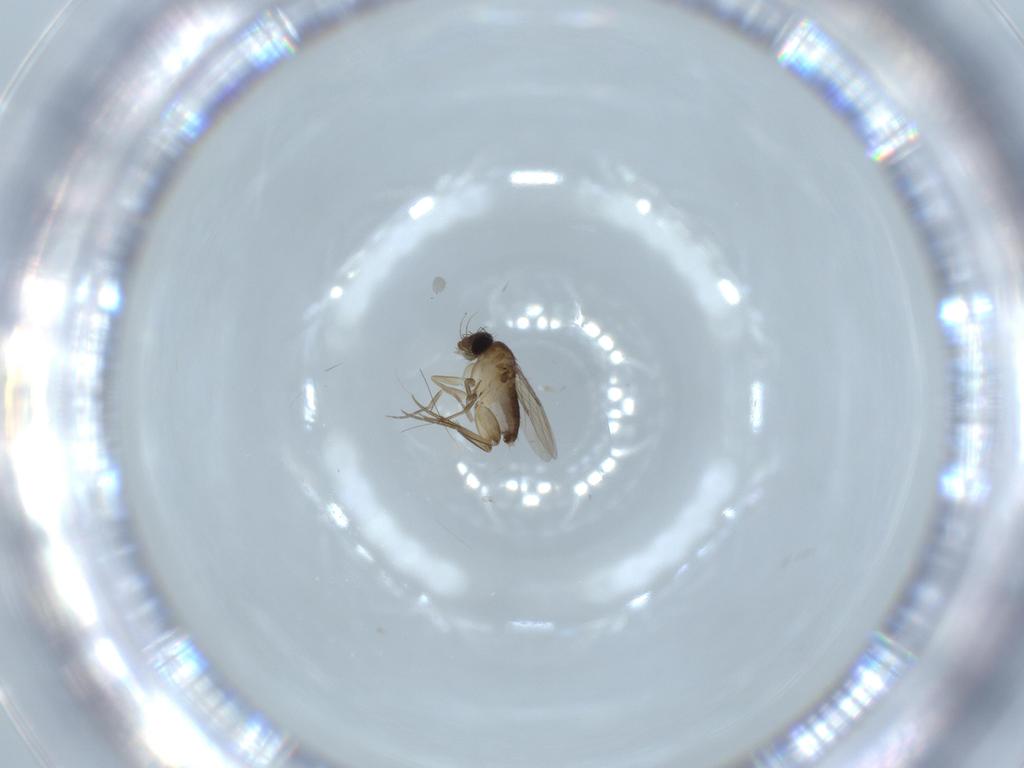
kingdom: Animalia
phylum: Arthropoda
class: Insecta
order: Diptera
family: Phoridae
